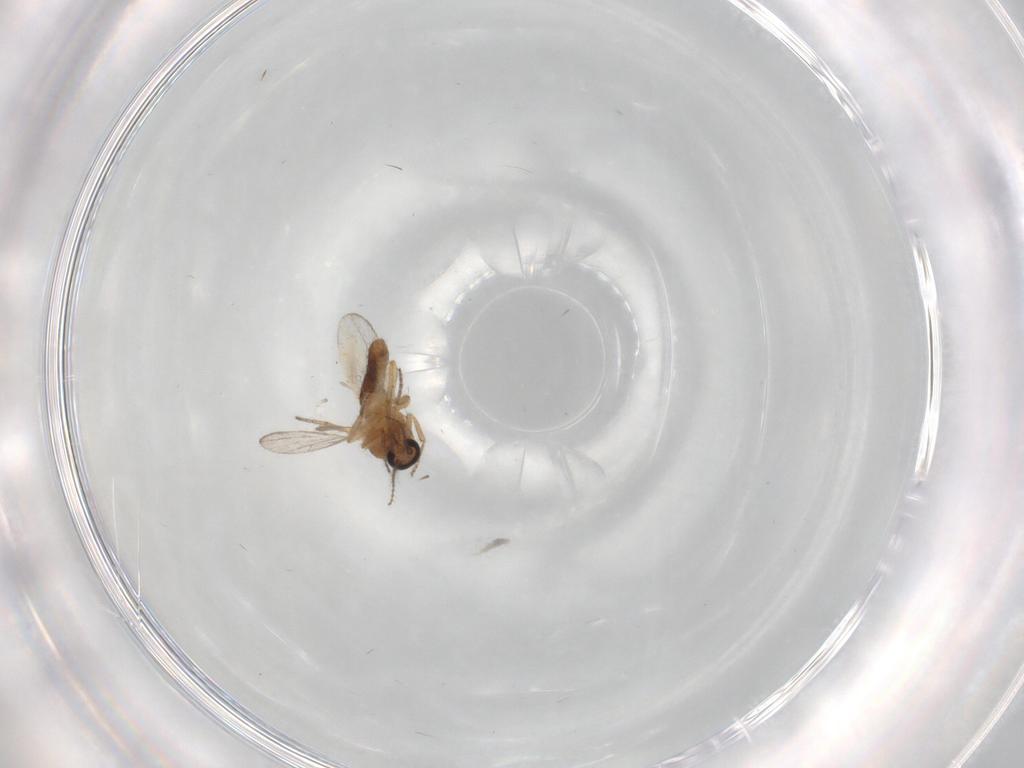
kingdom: Animalia
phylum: Arthropoda
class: Insecta
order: Diptera
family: Ceratopogonidae
